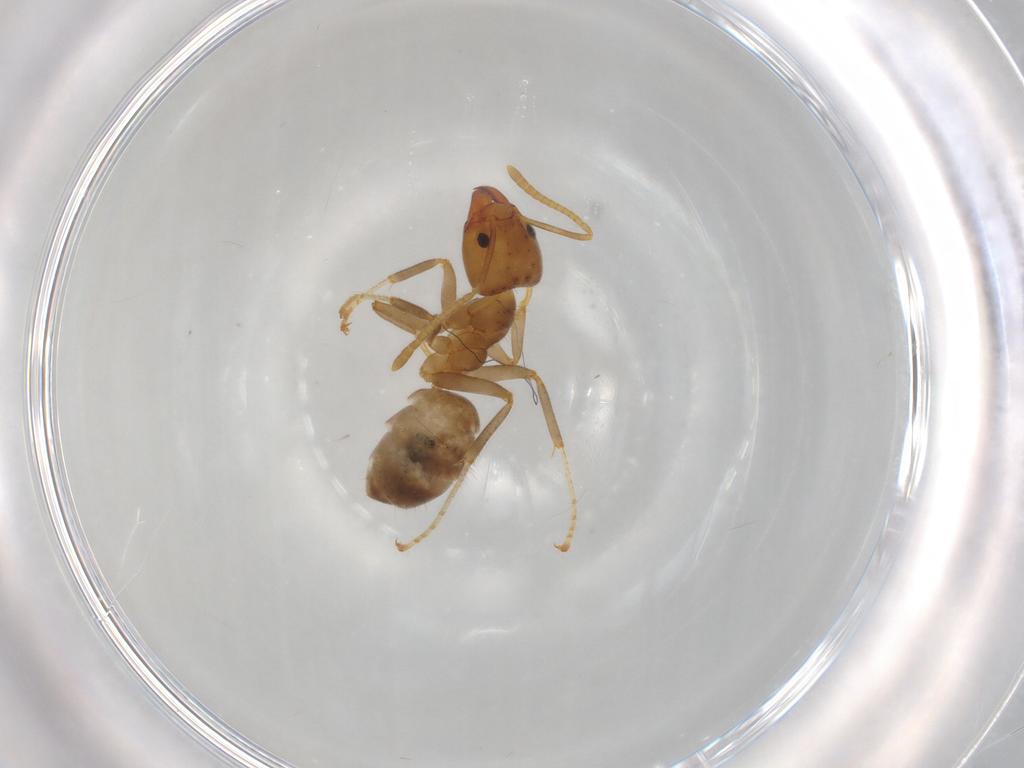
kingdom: Animalia
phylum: Arthropoda
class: Insecta
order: Hymenoptera
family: Formicidae
